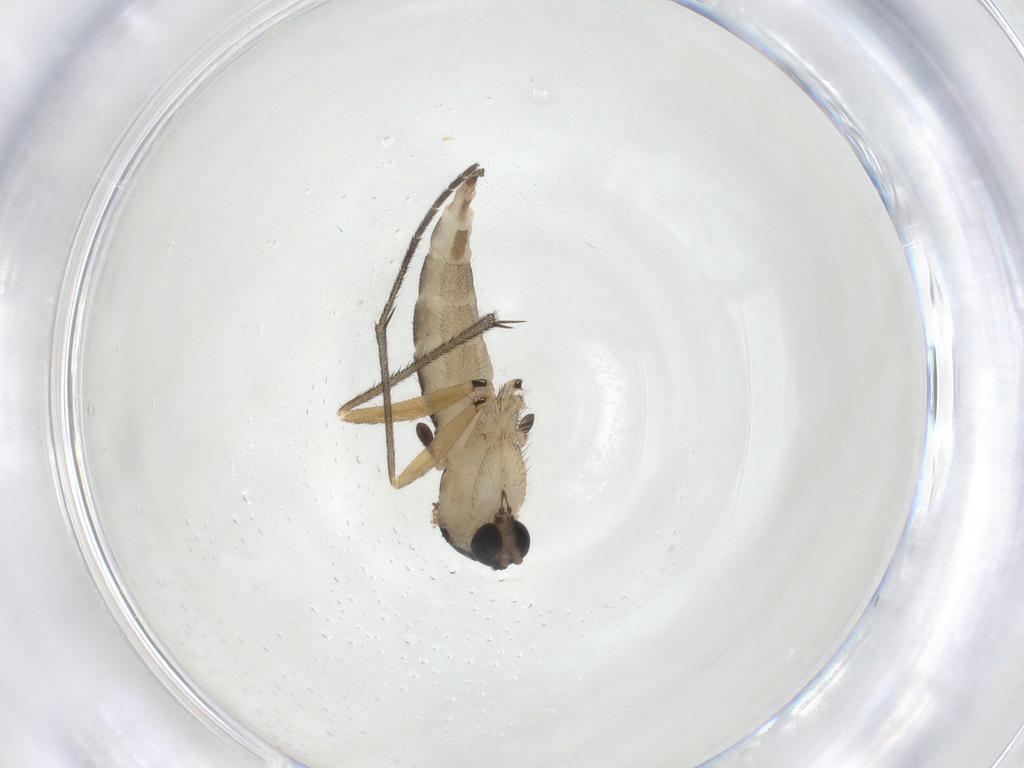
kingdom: Animalia
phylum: Arthropoda
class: Insecta
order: Diptera
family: Sciaridae
